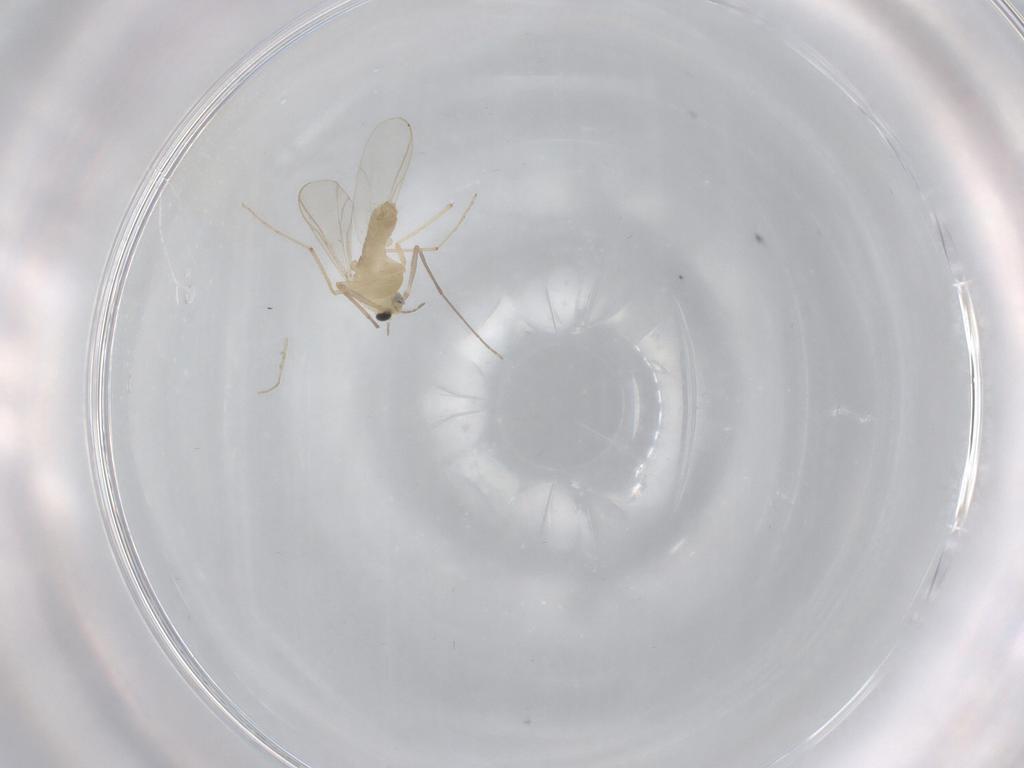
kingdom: Animalia
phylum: Arthropoda
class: Insecta
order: Diptera
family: Chironomidae
